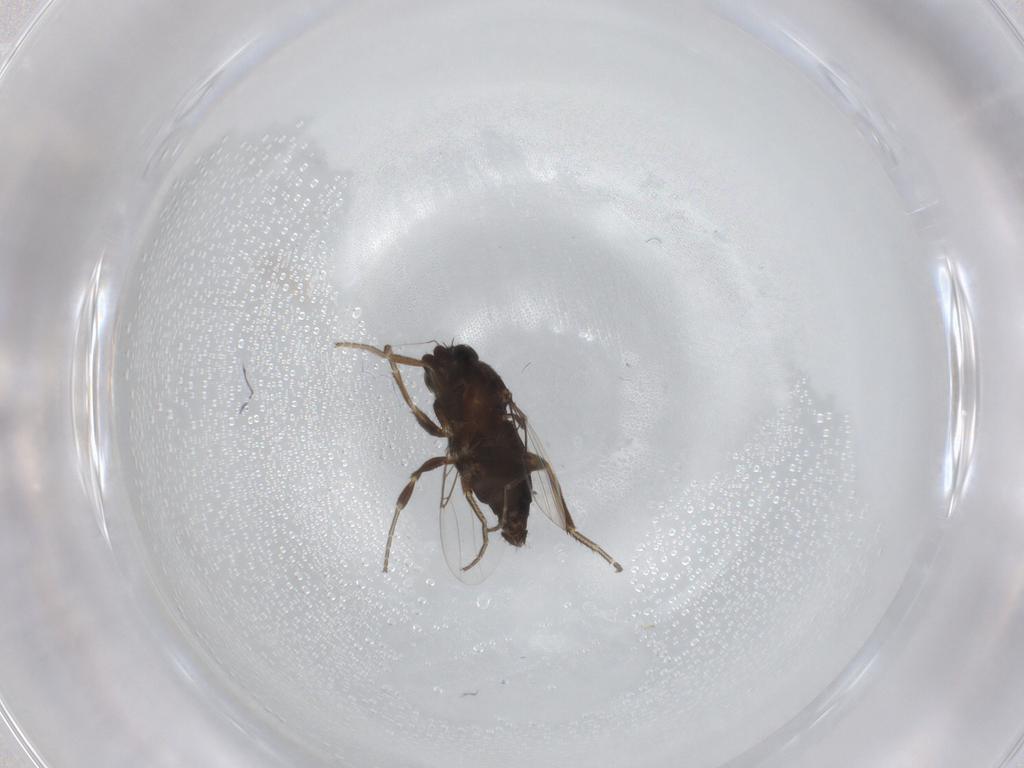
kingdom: Animalia
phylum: Arthropoda
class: Insecta
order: Diptera
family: Phoridae
